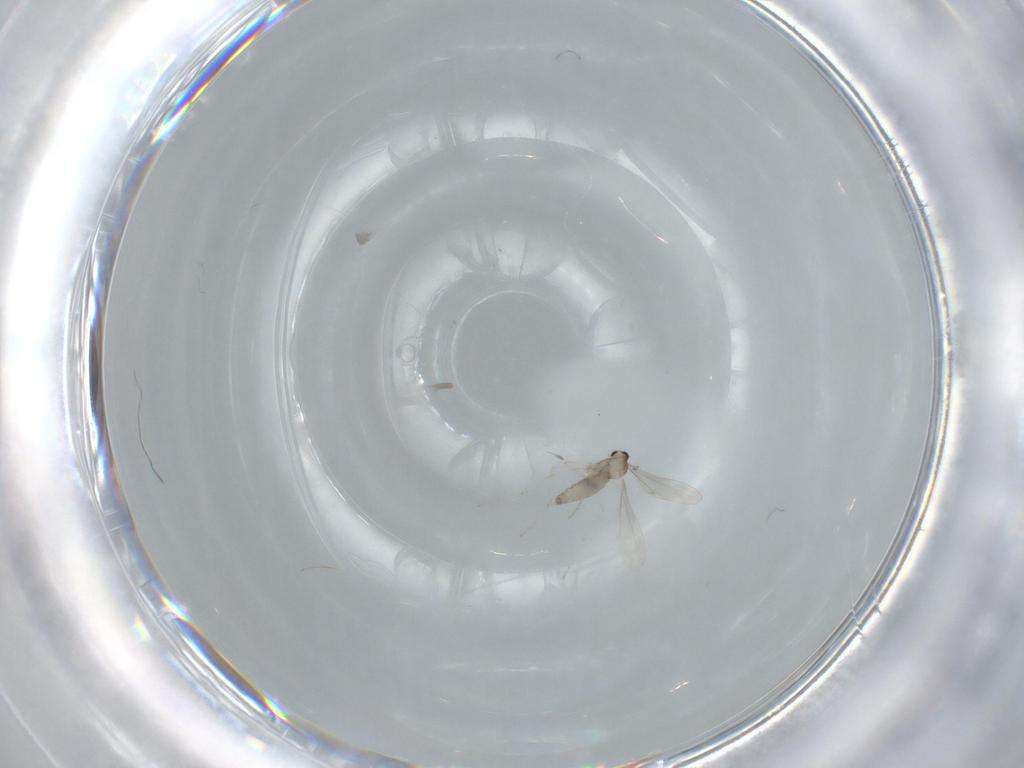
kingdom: Animalia
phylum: Arthropoda
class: Insecta
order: Diptera
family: Cecidomyiidae
